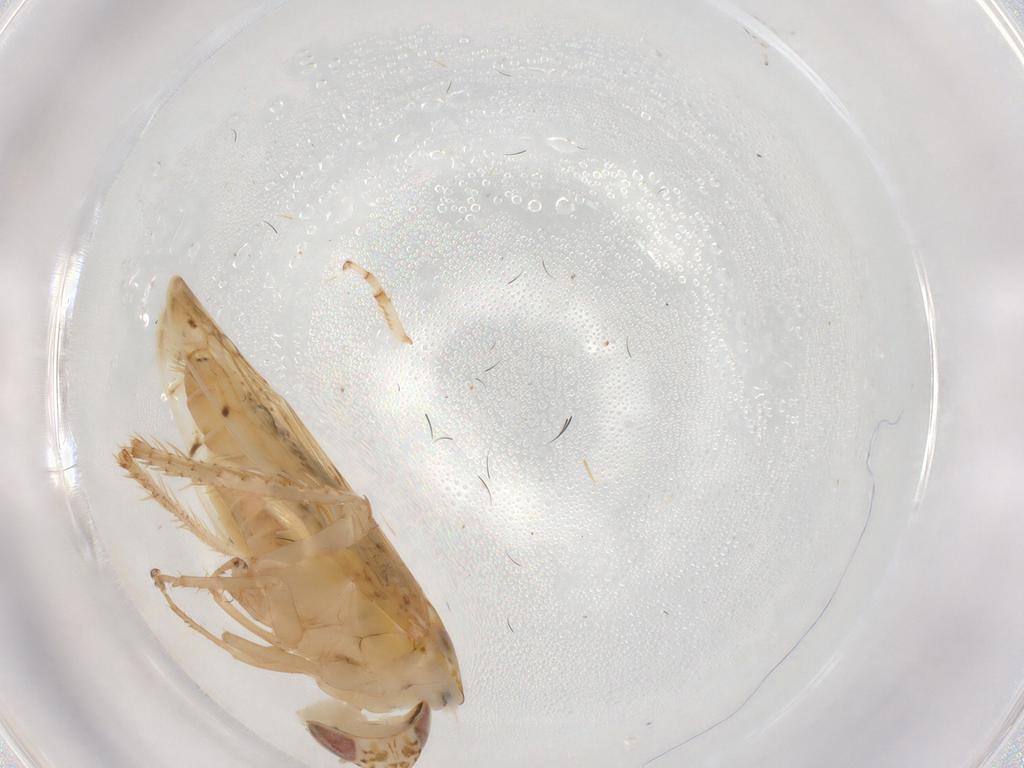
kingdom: Animalia
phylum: Arthropoda
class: Insecta
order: Hemiptera
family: Cicadellidae
